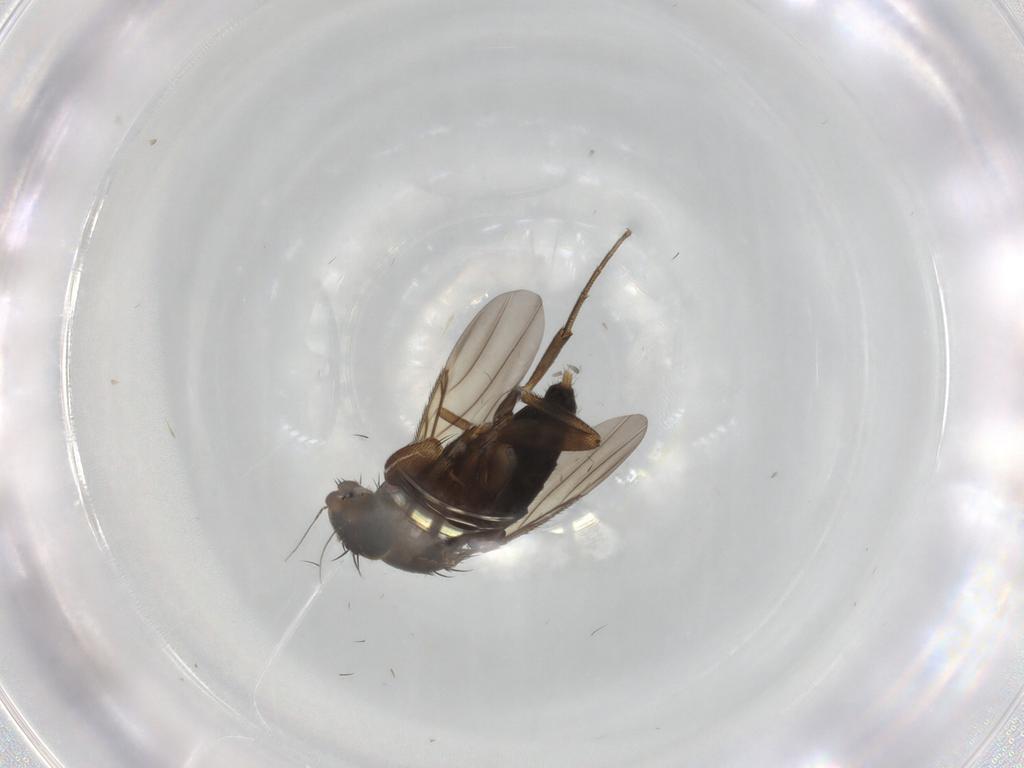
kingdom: Animalia
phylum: Arthropoda
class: Insecta
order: Diptera
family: Phoridae
